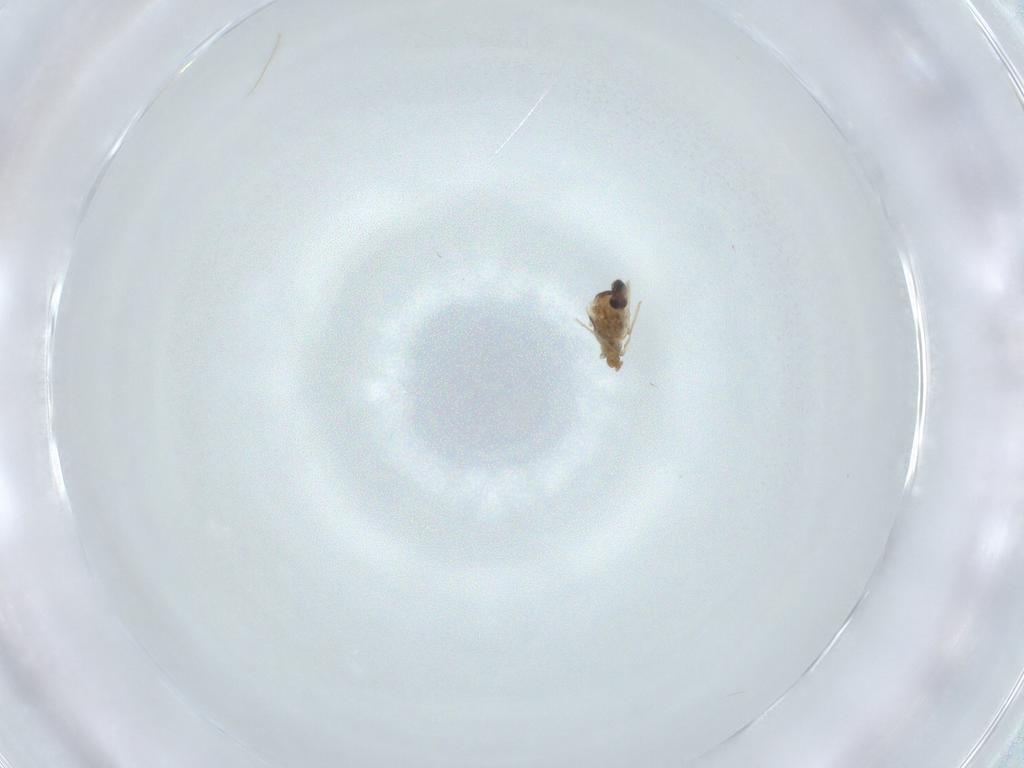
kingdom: Animalia
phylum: Arthropoda
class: Insecta
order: Diptera
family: Cecidomyiidae
